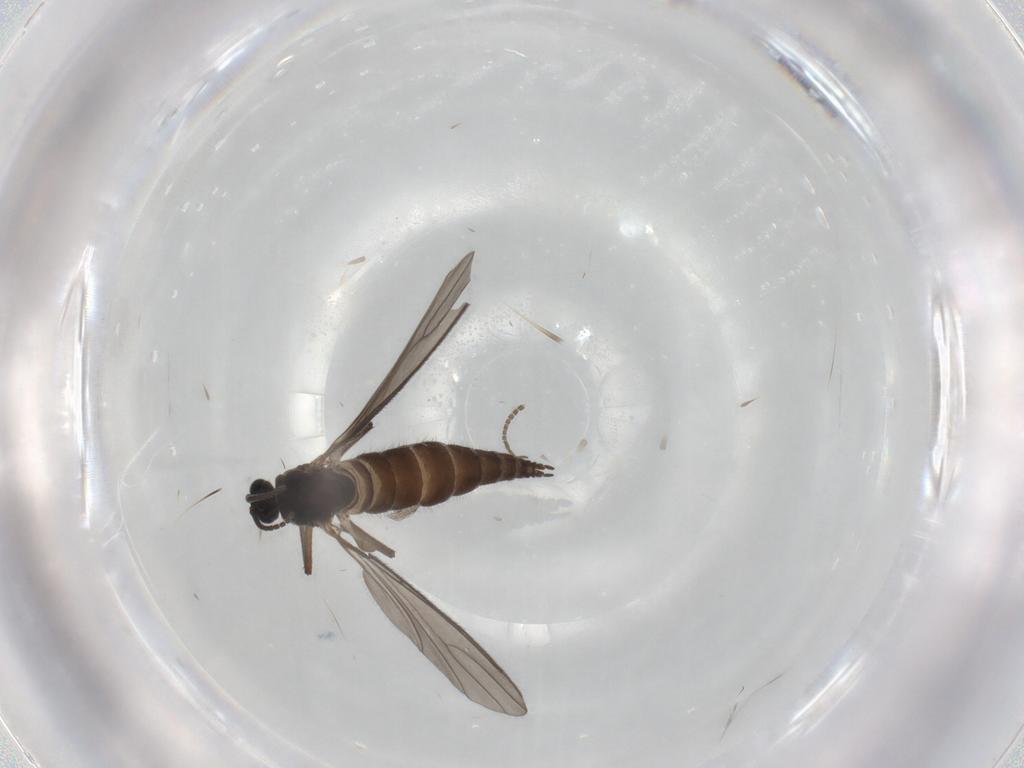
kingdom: Animalia
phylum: Arthropoda
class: Insecta
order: Diptera
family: Sciaridae
